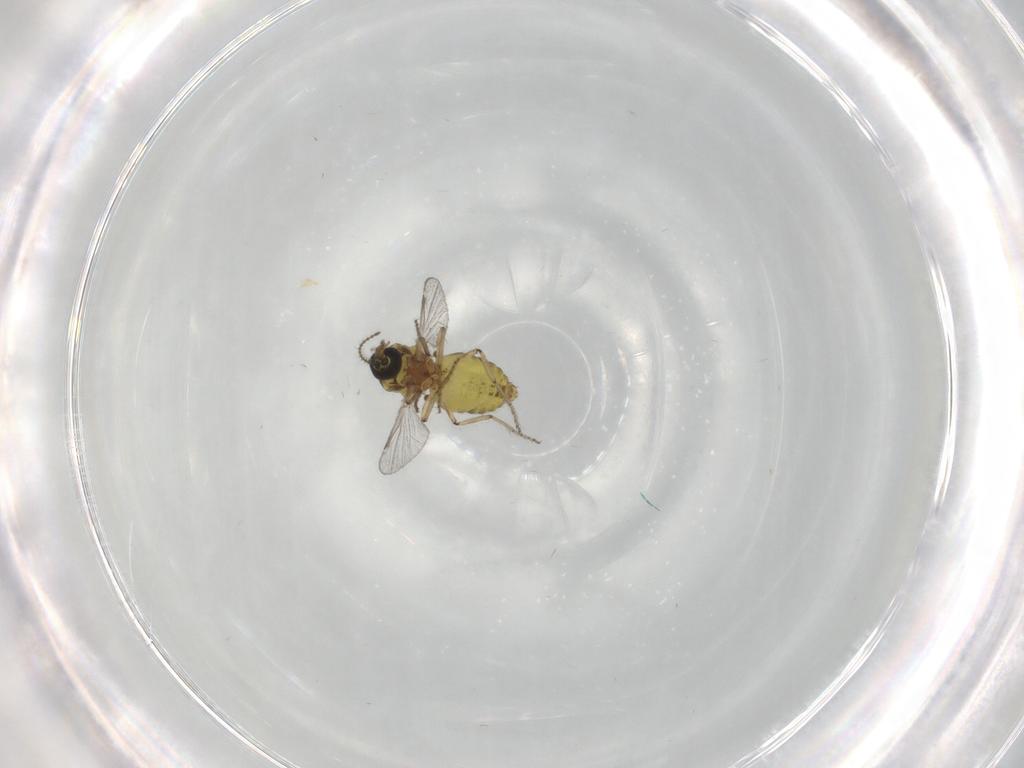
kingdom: Animalia
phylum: Arthropoda
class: Insecta
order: Diptera
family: Ceratopogonidae
